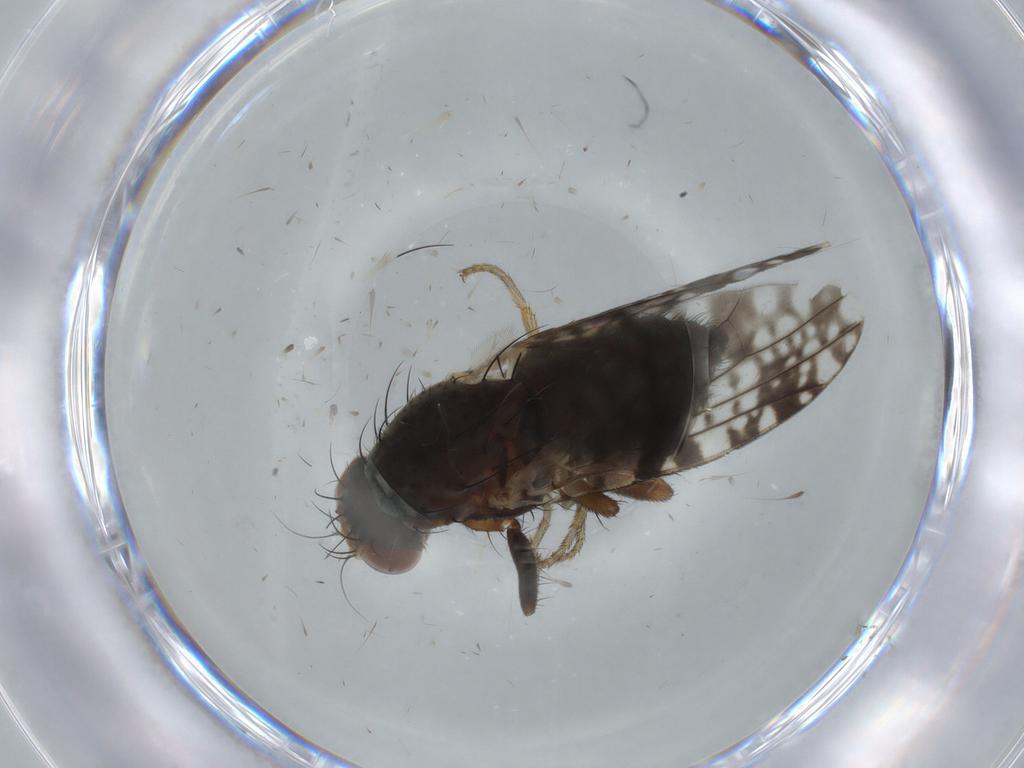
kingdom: Animalia
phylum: Arthropoda
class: Insecta
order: Diptera
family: Tephritidae
